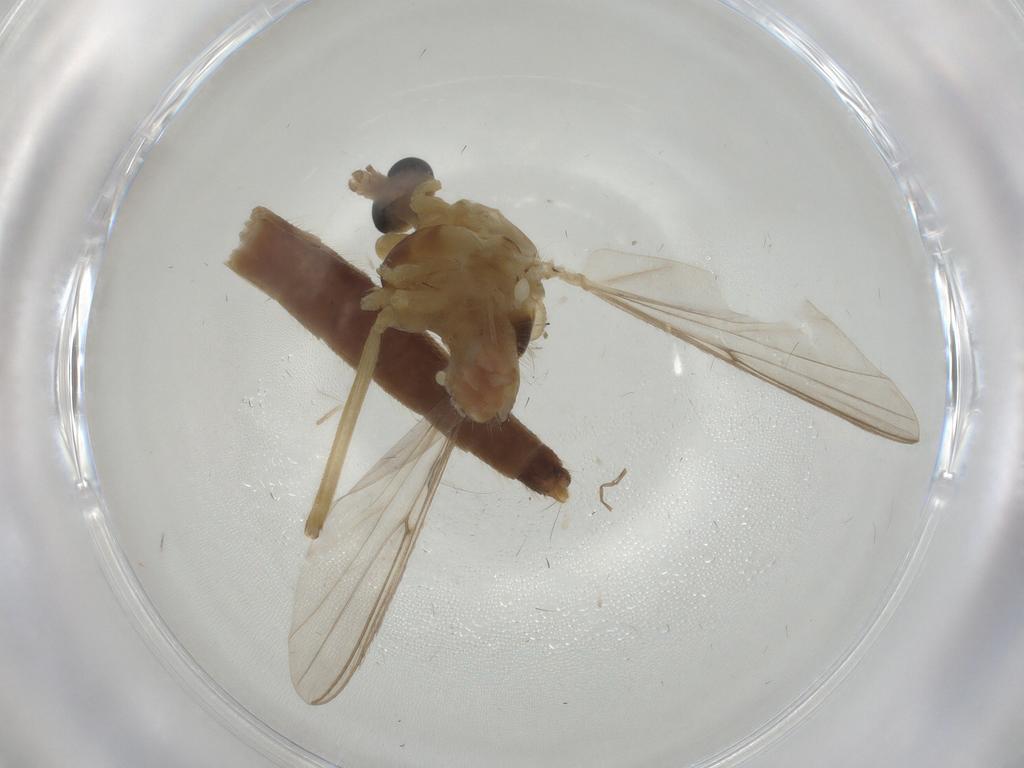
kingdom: Animalia
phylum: Arthropoda
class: Insecta
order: Diptera
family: Chironomidae
